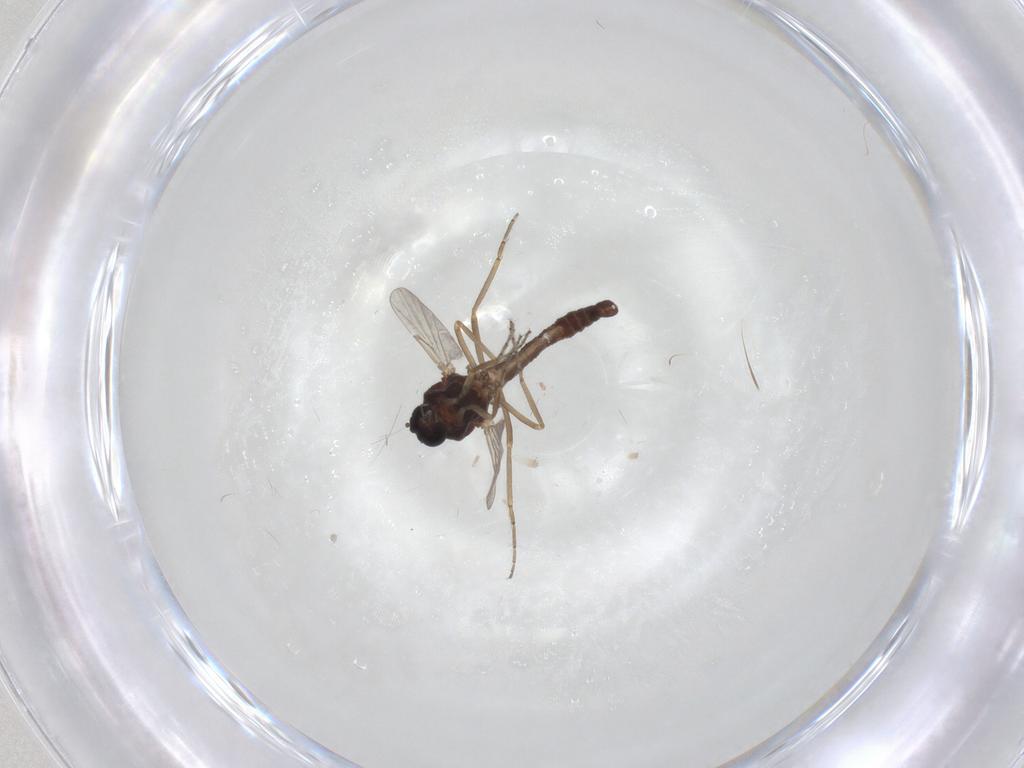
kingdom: Animalia
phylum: Arthropoda
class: Insecta
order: Diptera
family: Ceratopogonidae
